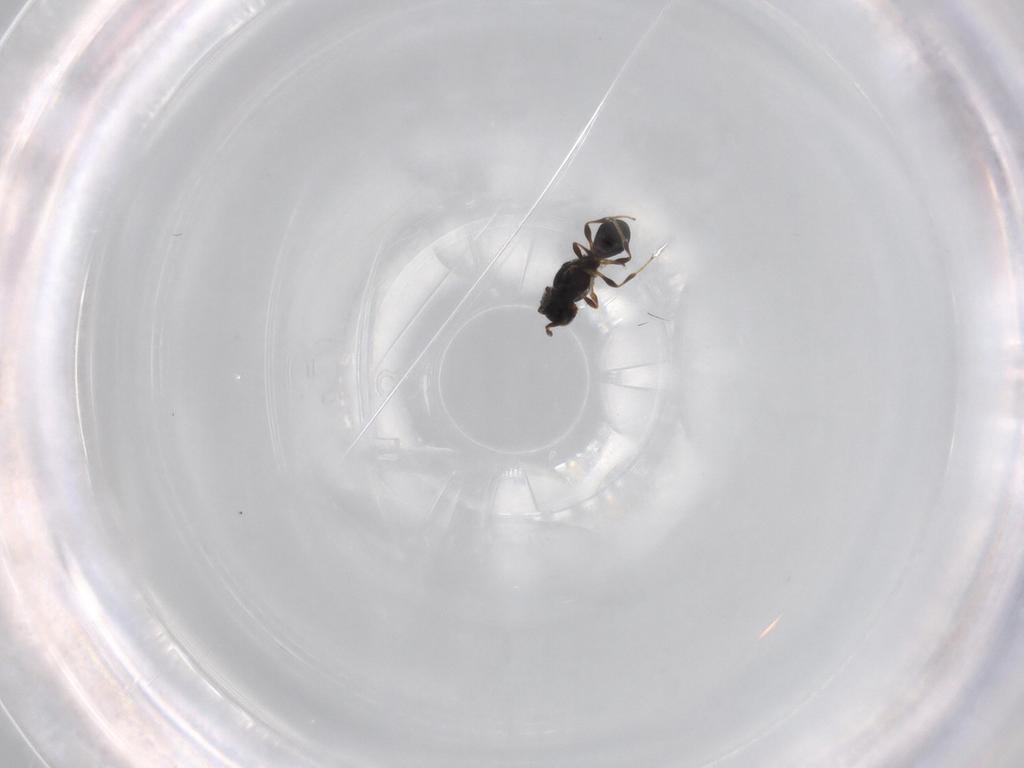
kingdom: Animalia
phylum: Arthropoda
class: Insecta
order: Hymenoptera
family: Platygastridae
